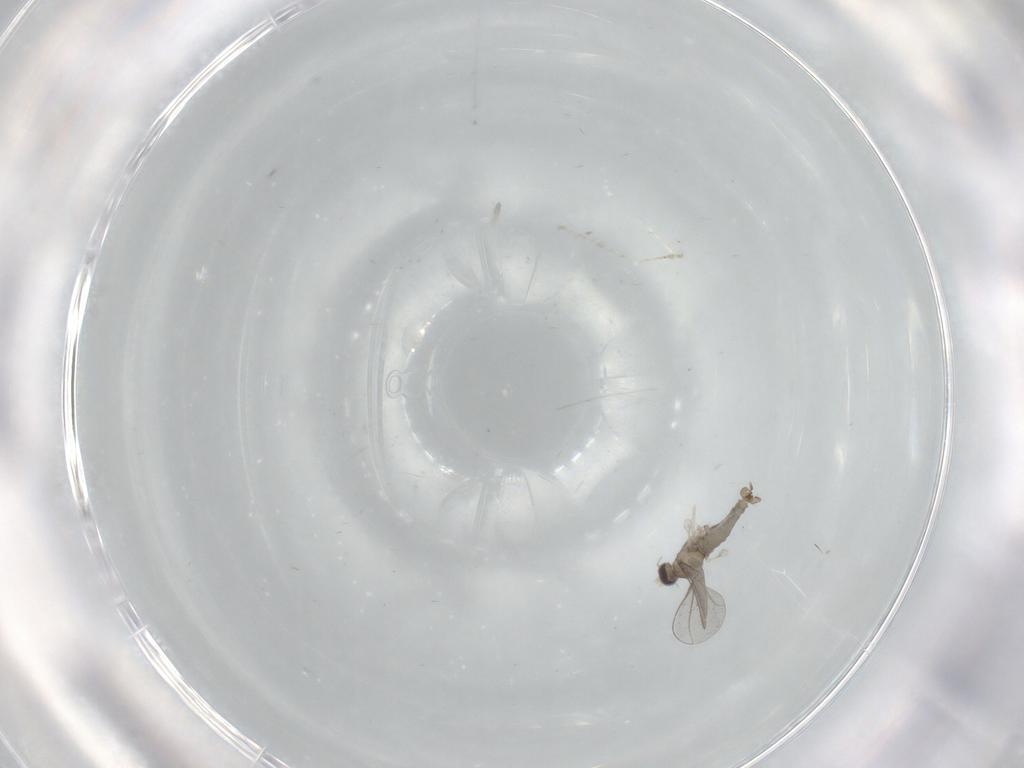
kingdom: Animalia
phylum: Arthropoda
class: Insecta
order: Diptera
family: Cecidomyiidae
